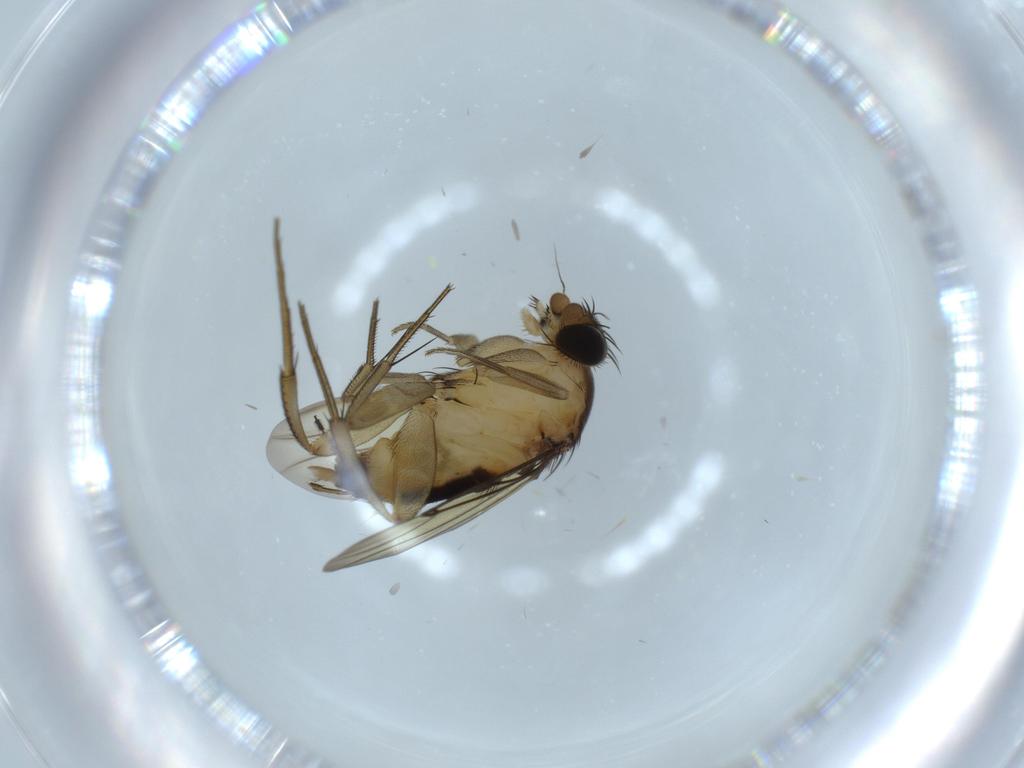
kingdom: Animalia
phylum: Arthropoda
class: Insecta
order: Diptera
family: Sciaridae
